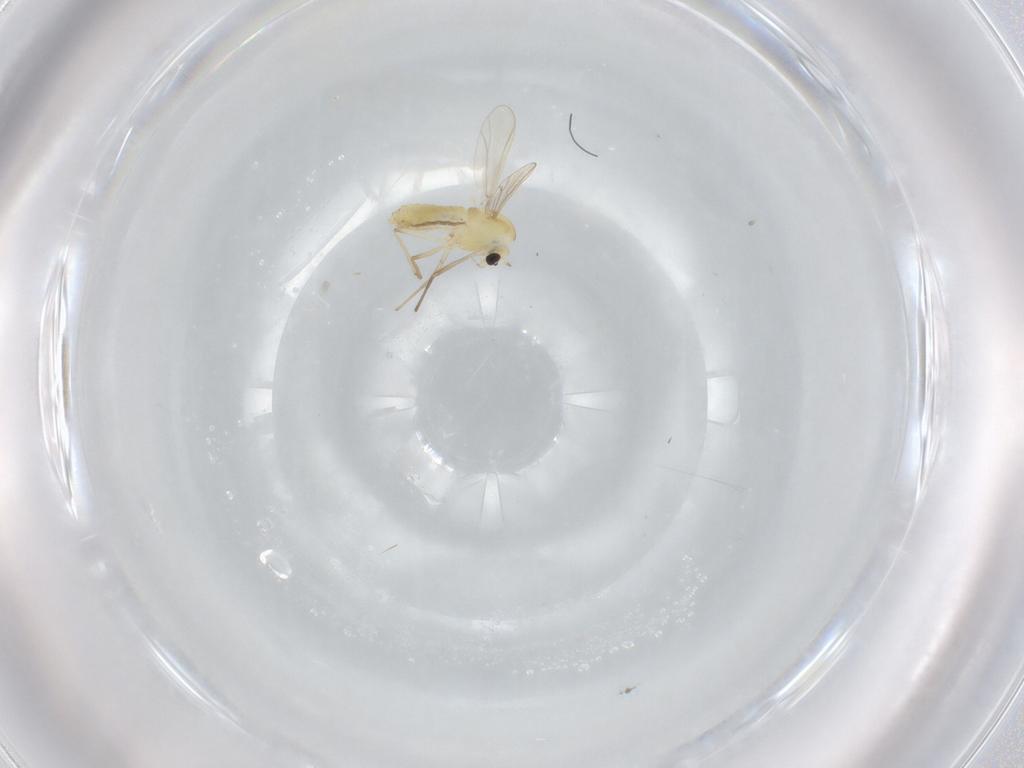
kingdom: Animalia
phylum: Arthropoda
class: Insecta
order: Diptera
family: Chironomidae
